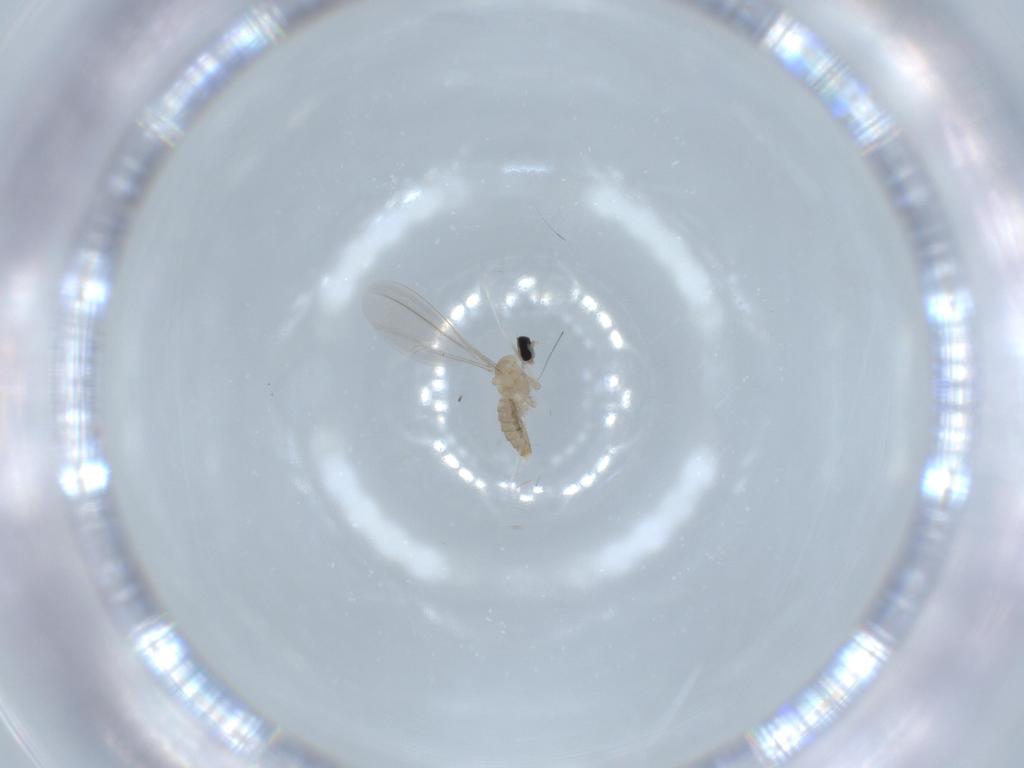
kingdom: Animalia
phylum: Arthropoda
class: Insecta
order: Diptera
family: Cecidomyiidae
